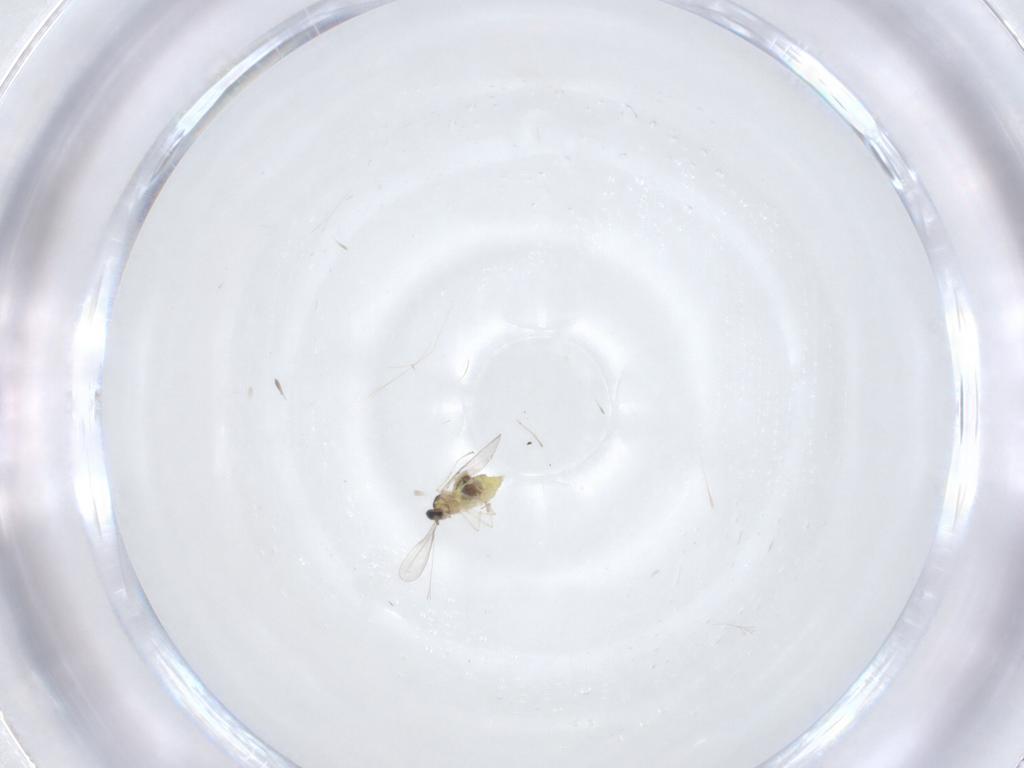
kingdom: Animalia
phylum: Arthropoda
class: Insecta
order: Diptera
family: Cecidomyiidae
